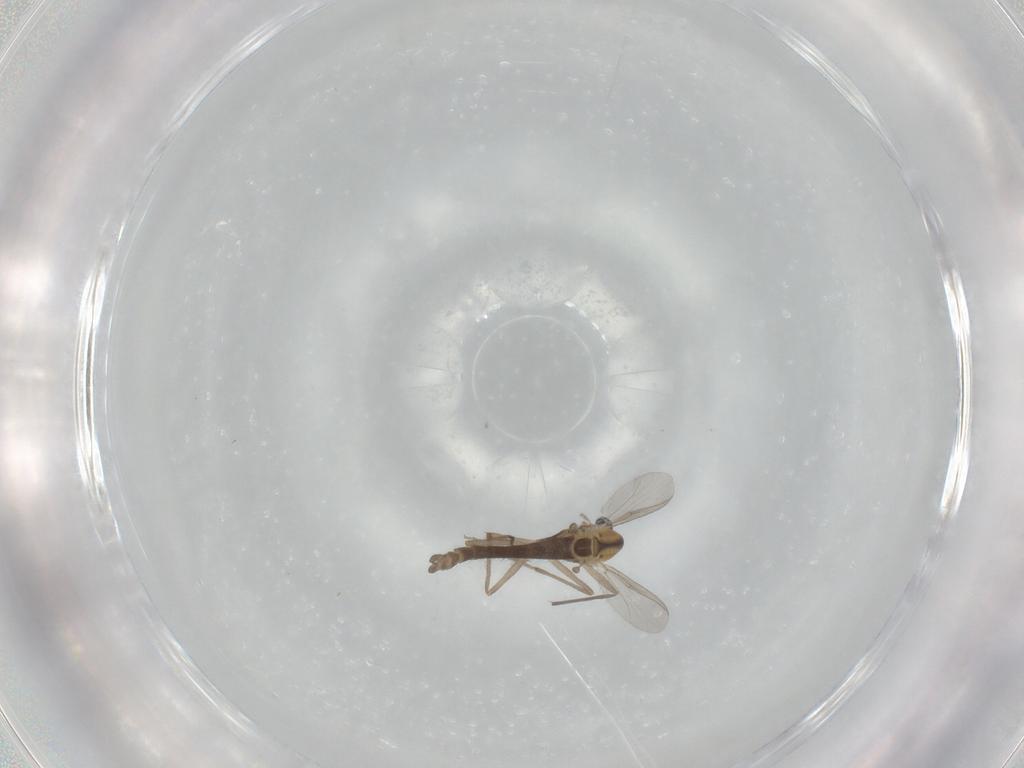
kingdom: Animalia
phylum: Arthropoda
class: Insecta
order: Diptera
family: Chironomidae
